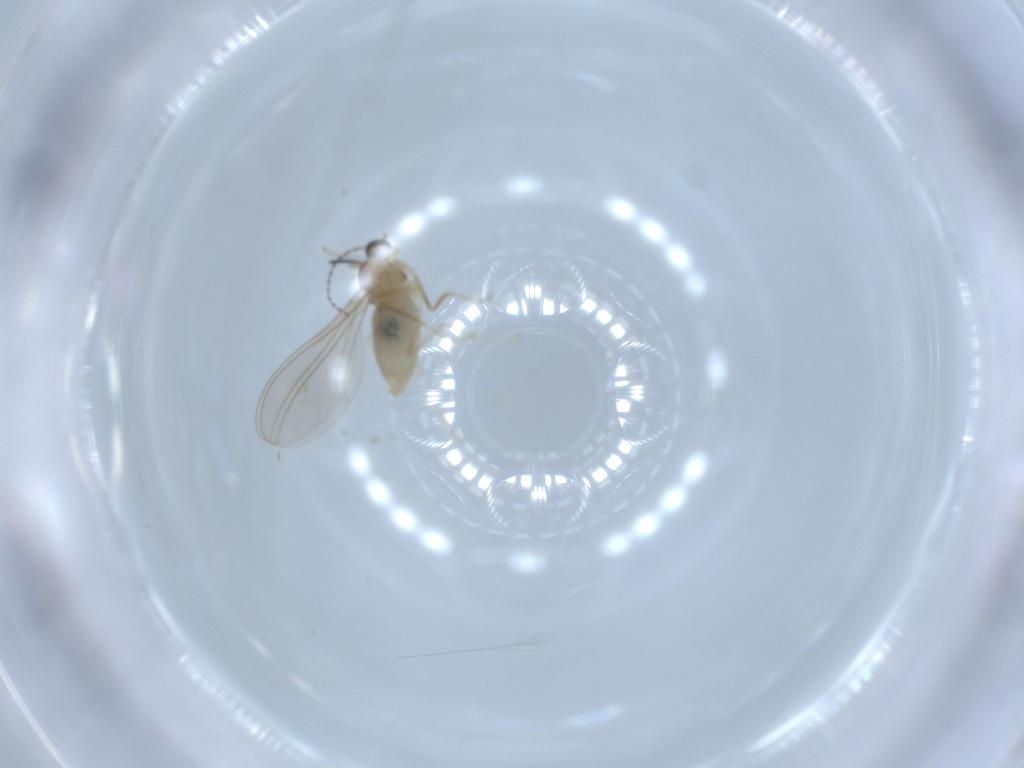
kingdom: Animalia
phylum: Arthropoda
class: Insecta
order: Diptera
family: Cecidomyiidae
